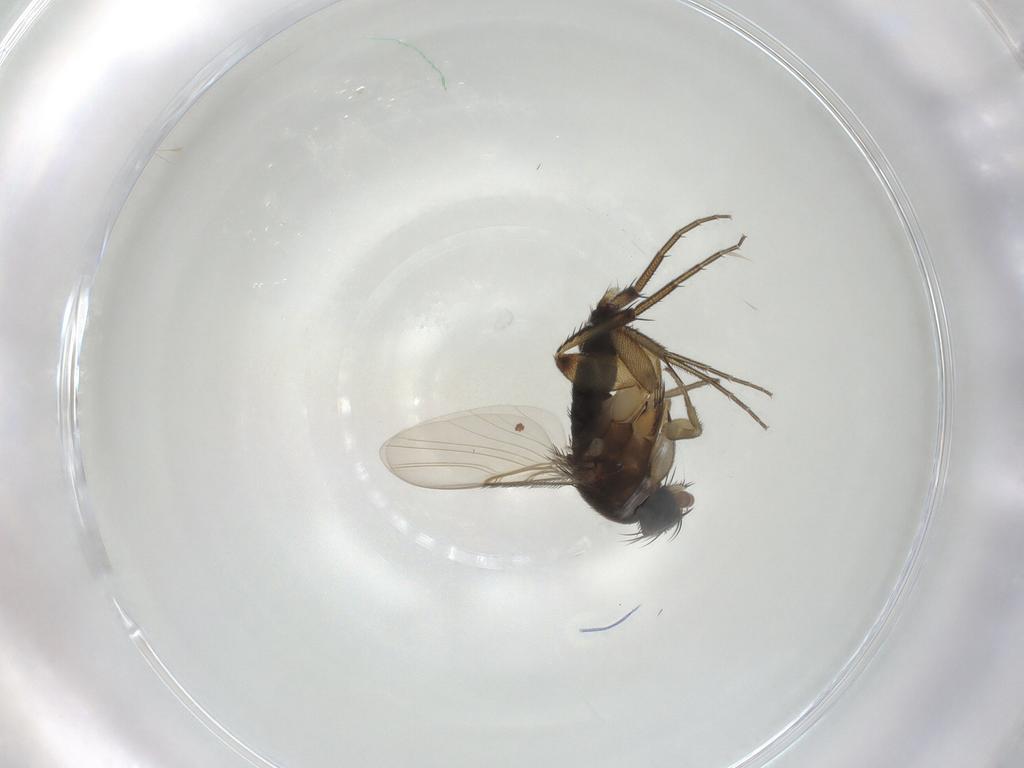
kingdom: Animalia
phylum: Arthropoda
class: Insecta
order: Diptera
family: Phoridae
